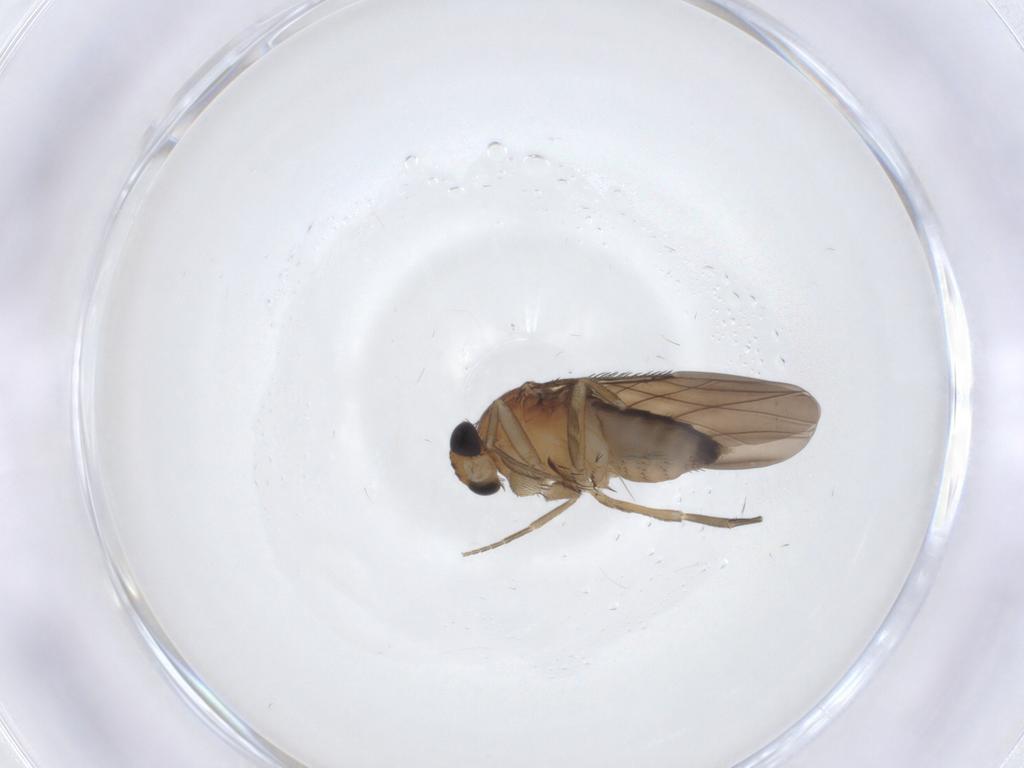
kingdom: Animalia
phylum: Arthropoda
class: Insecta
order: Diptera
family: Phoridae
